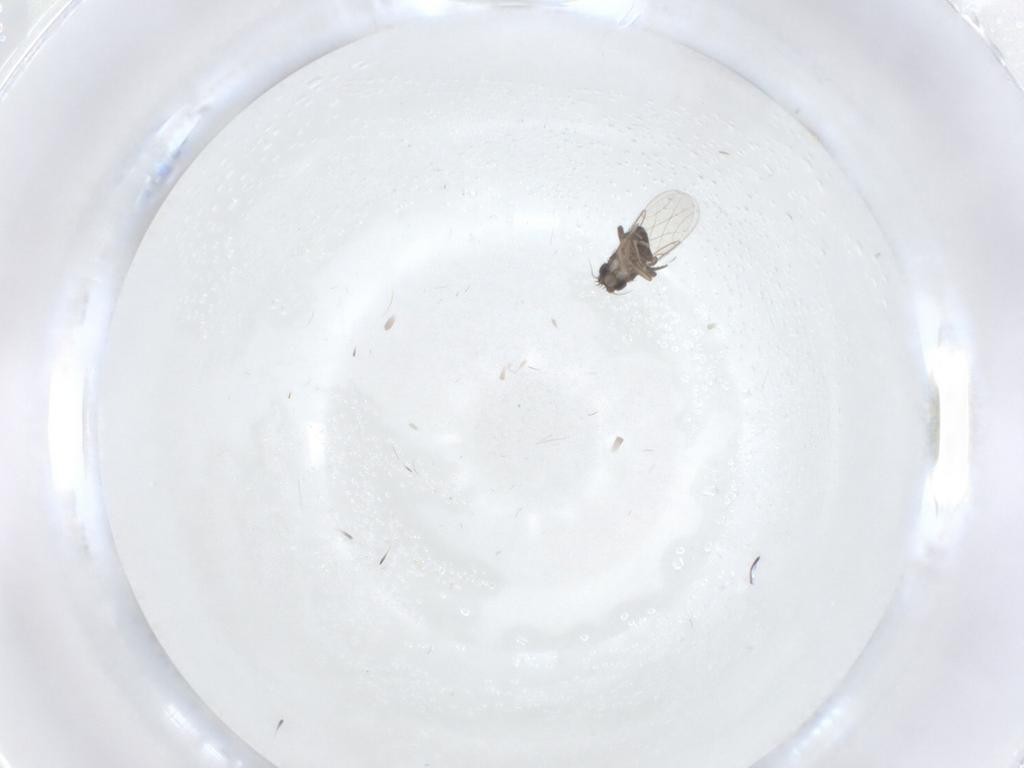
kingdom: Animalia
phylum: Arthropoda
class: Insecta
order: Diptera
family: Phoridae
